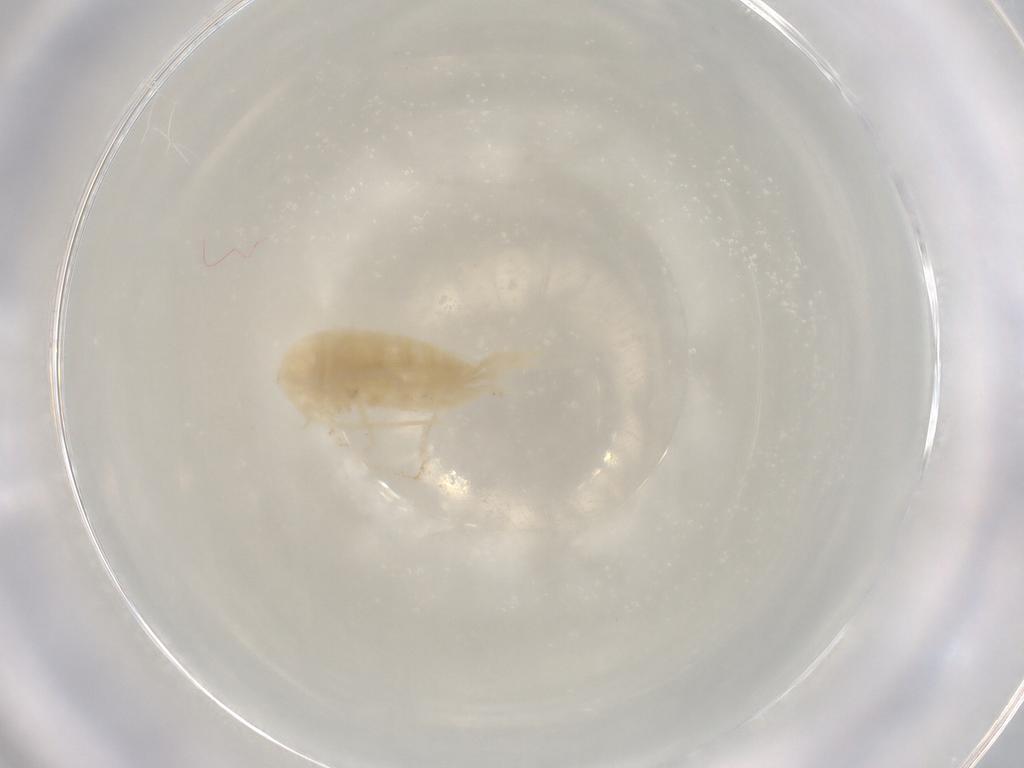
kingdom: Animalia
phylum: Arthropoda
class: Copepoda
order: Calanoida
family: Diaptomidae
